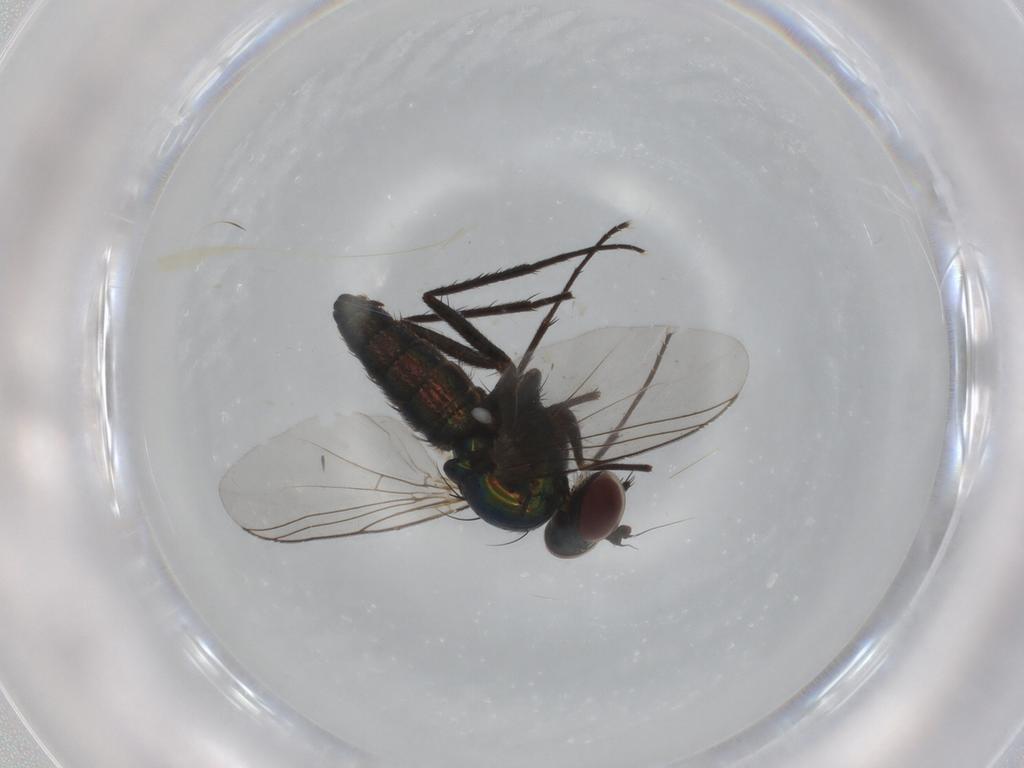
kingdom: Animalia
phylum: Arthropoda
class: Insecta
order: Diptera
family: Dolichopodidae
